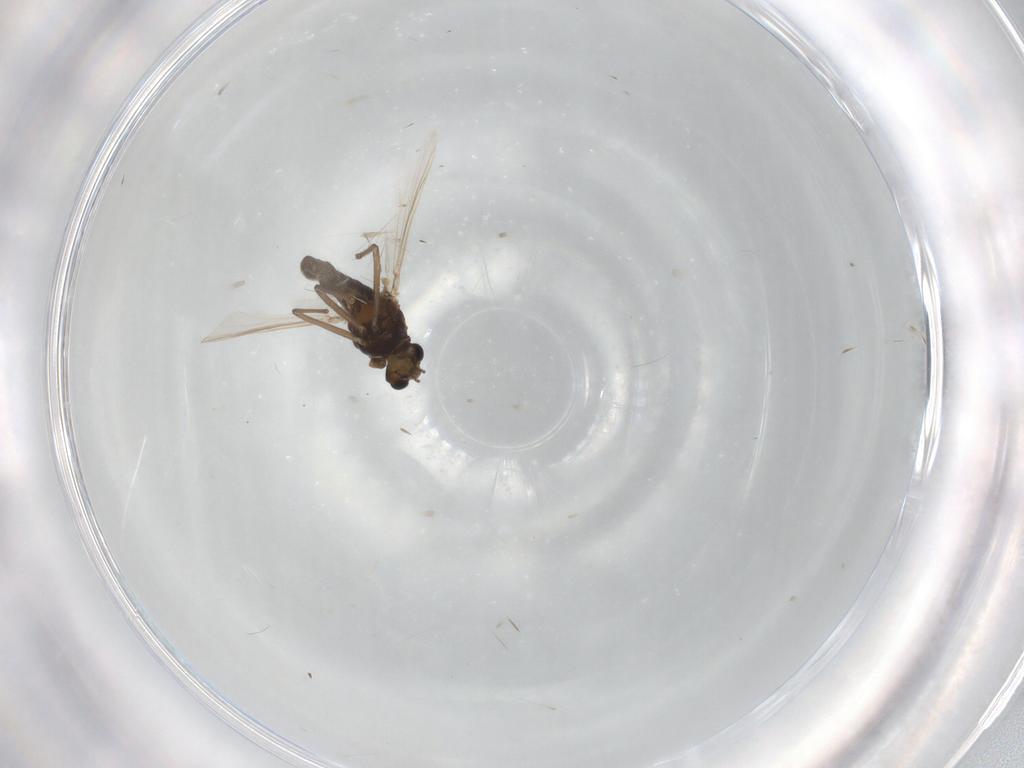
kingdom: Animalia
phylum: Arthropoda
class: Insecta
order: Diptera
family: Chironomidae
